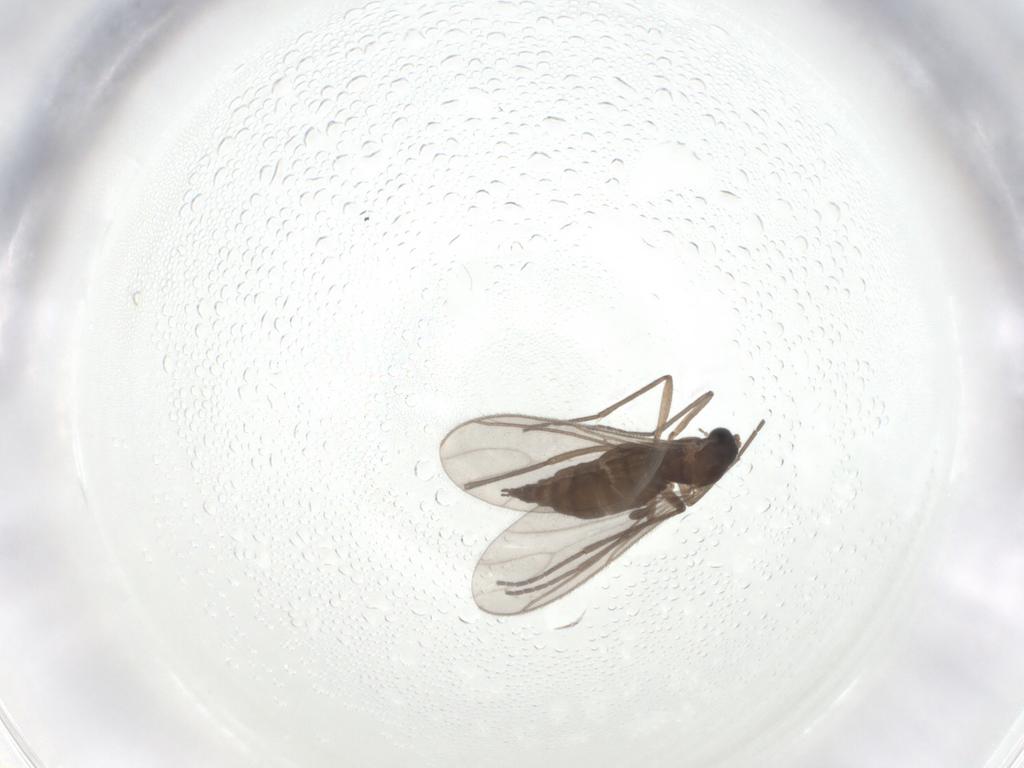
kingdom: Animalia
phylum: Arthropoda
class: Insecta
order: Diptera
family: Sciaridae
